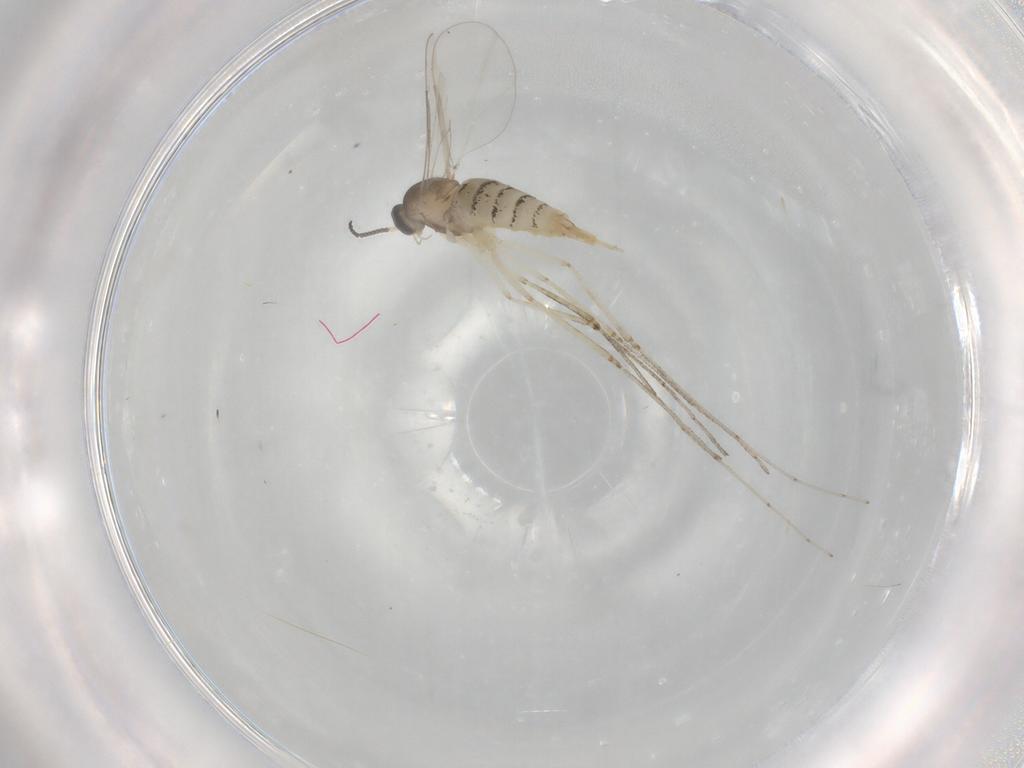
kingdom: Animalia
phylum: Arthropoda
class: Insecta
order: Diptera
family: Cecidomyiidae
